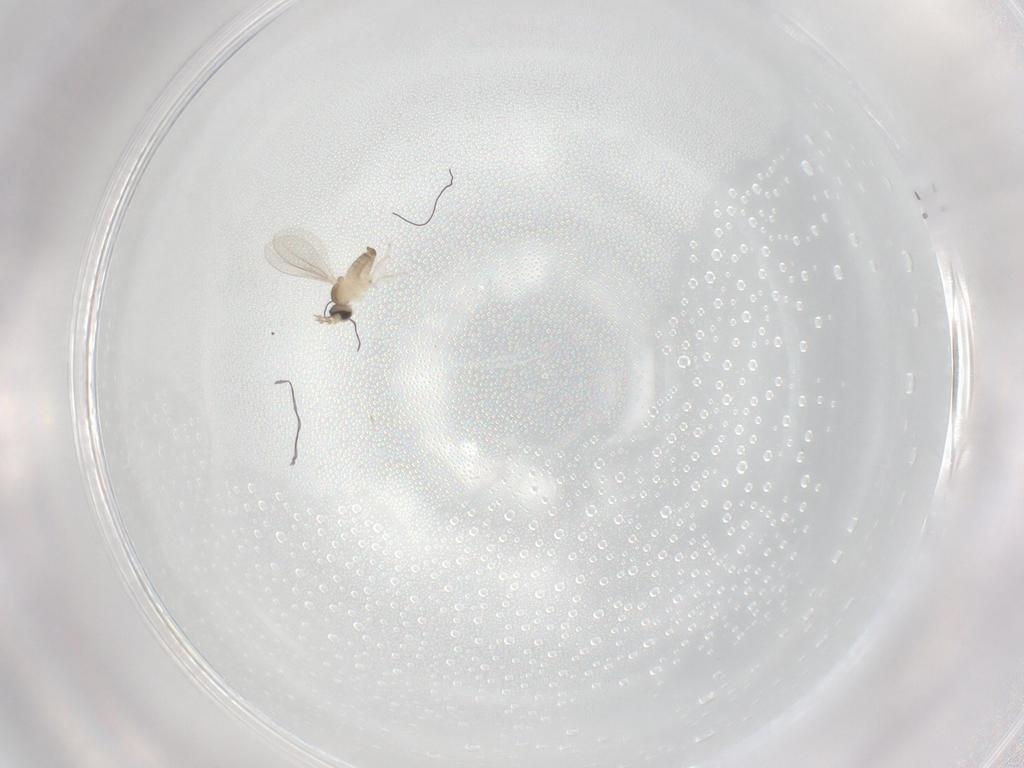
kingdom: Animalia
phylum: Arthropoda
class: Insecta
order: Diptera
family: Cecidomyiidae
